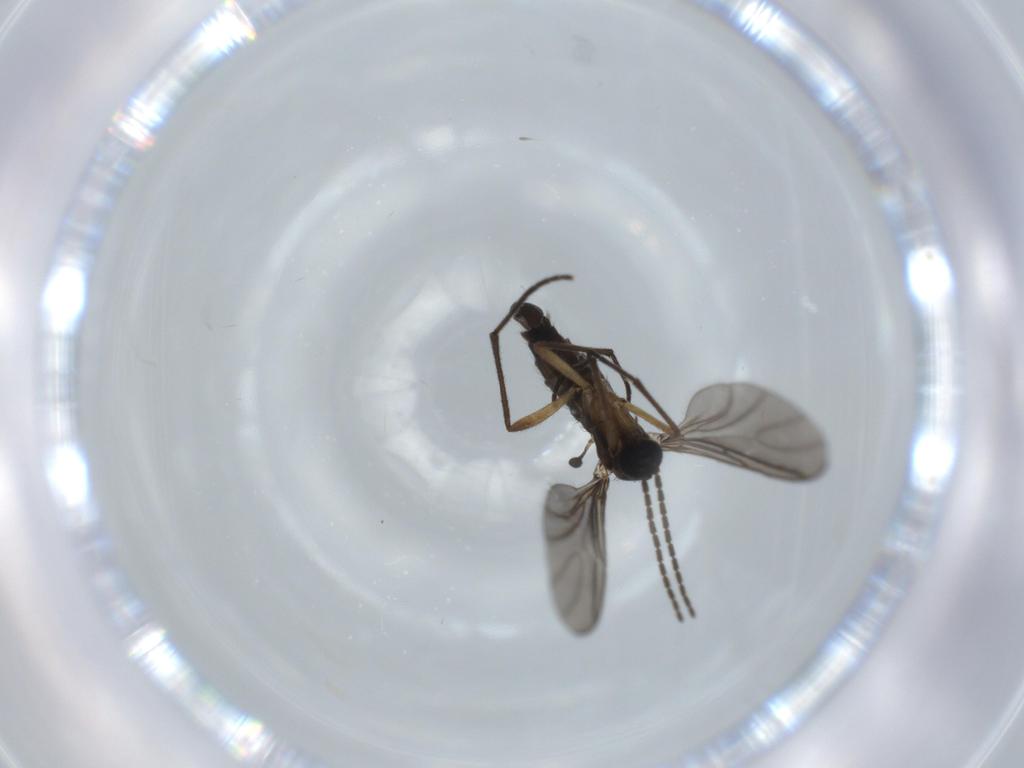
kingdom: Animalia
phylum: Arthropoda
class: Insecta
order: Diptera
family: Sciaridae
